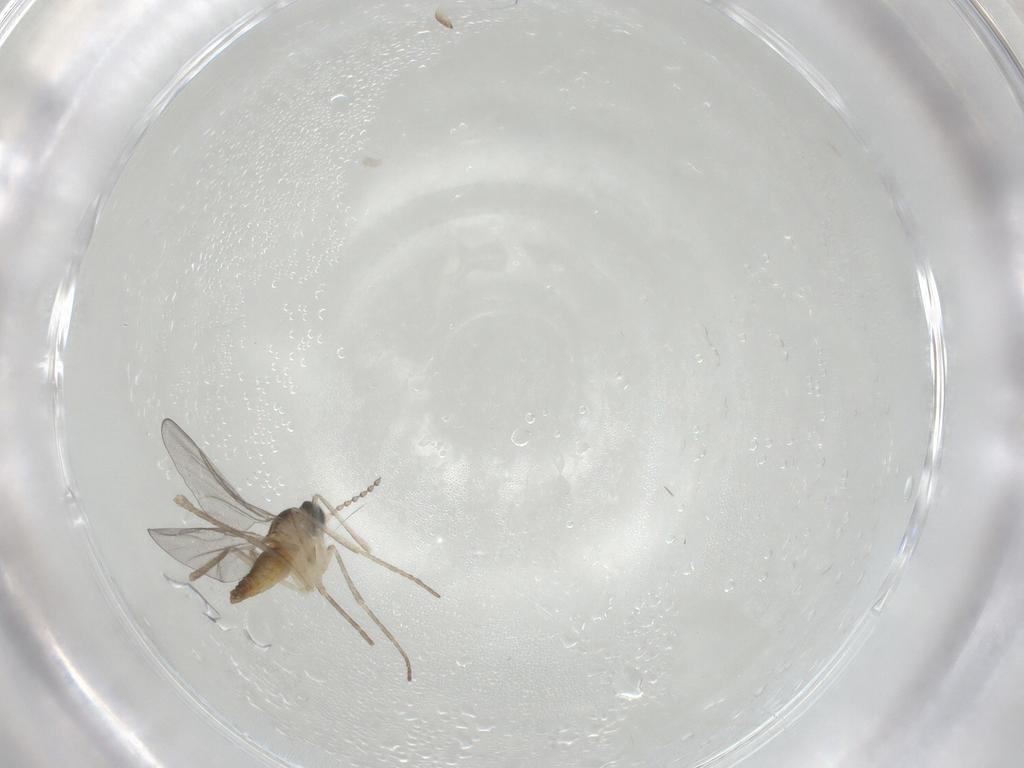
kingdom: Animalia
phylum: Arthropoda
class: Insecta
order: Diptera
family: Cecidomyiidae
